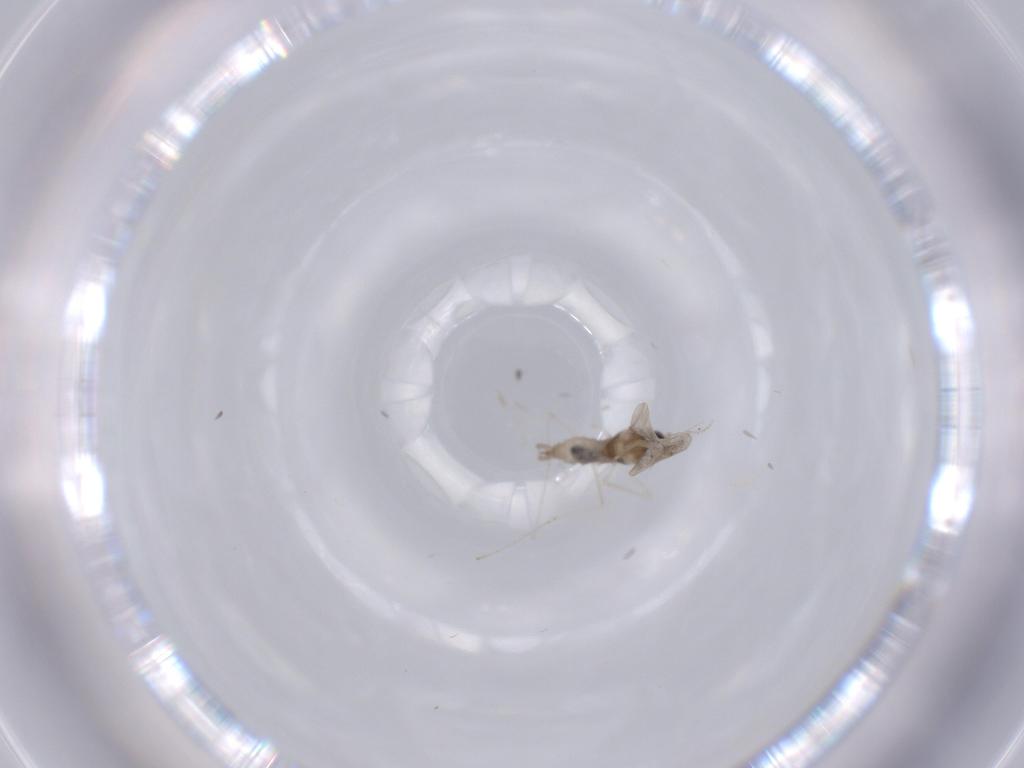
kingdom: Animalia
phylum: Arthropoda
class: Insecta
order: Diptera
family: Cecidomyiidae
